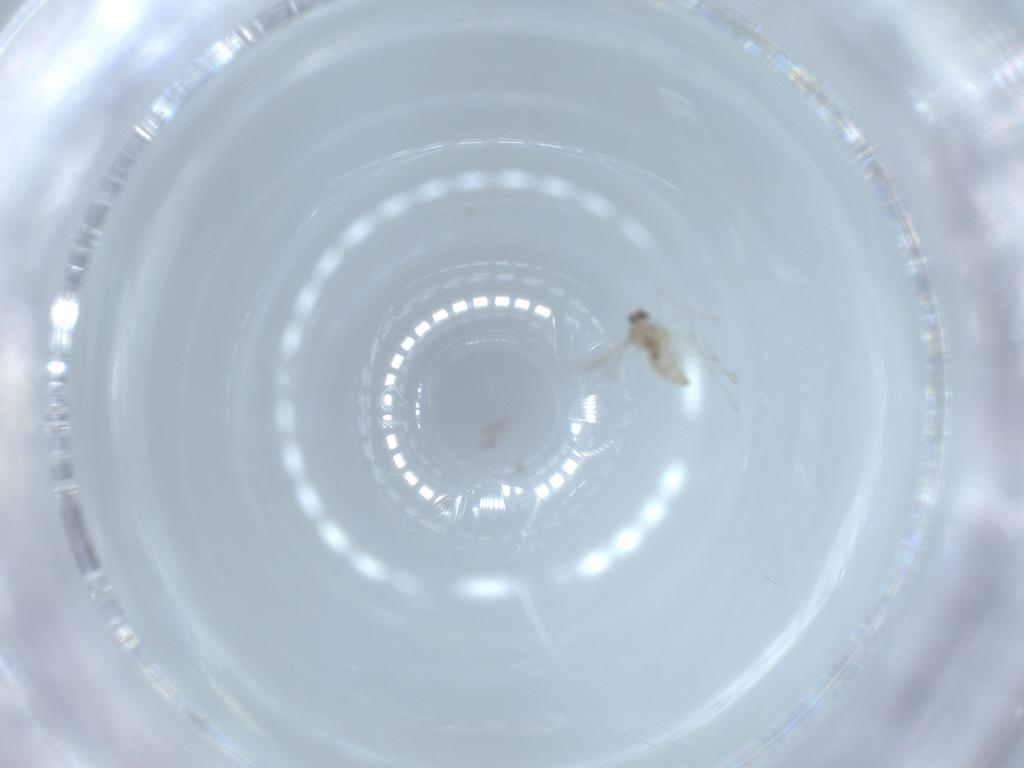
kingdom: Animalia
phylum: Arthropoda
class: Insecta
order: Diptera
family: Cecidomyiidae
